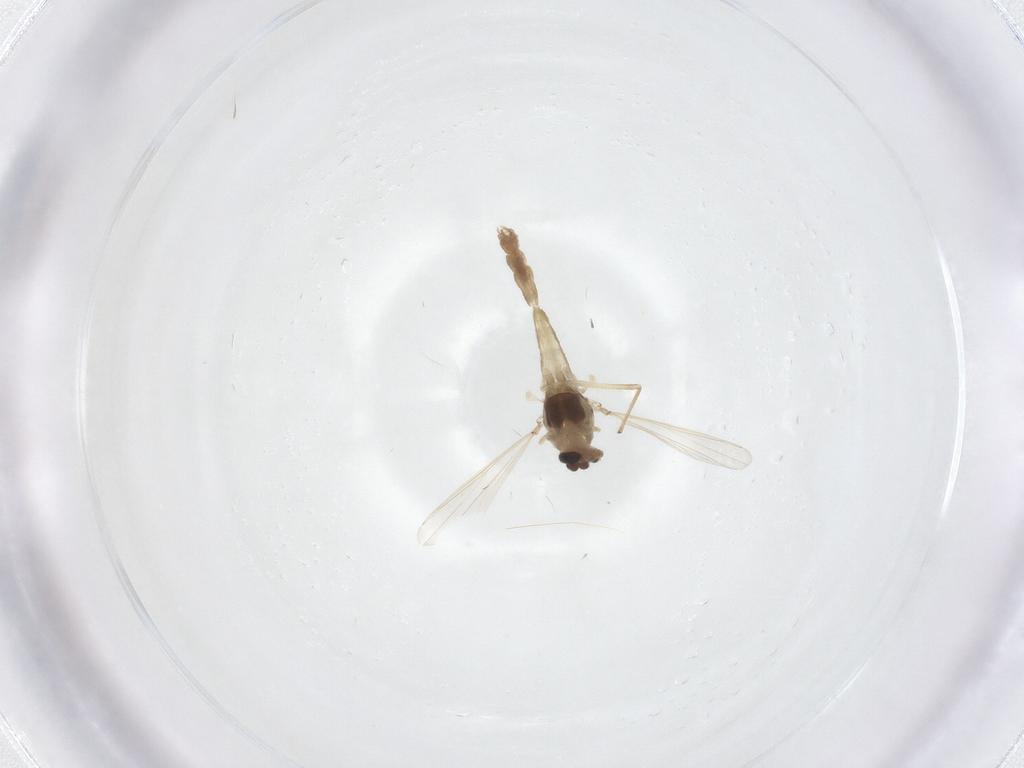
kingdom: Animalia
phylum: Arthropoda
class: Insecta
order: Diptera
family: Chironomidae
